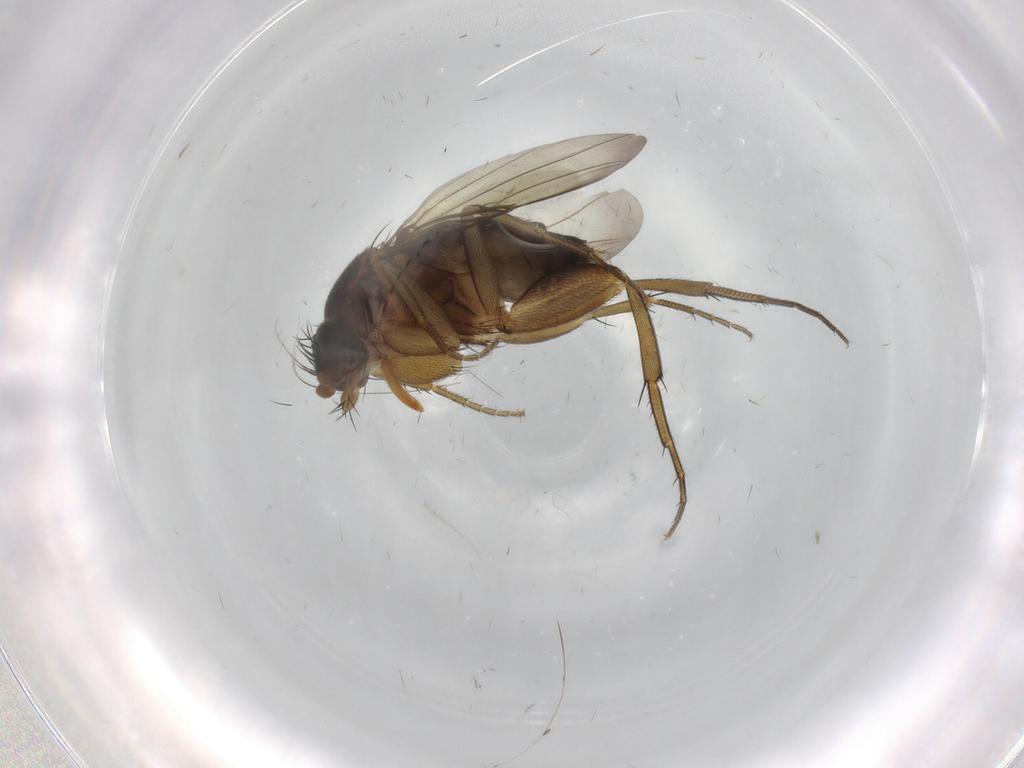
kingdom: Animalia
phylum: Arthropoda
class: Insecta
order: Diptera
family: Phoridae
